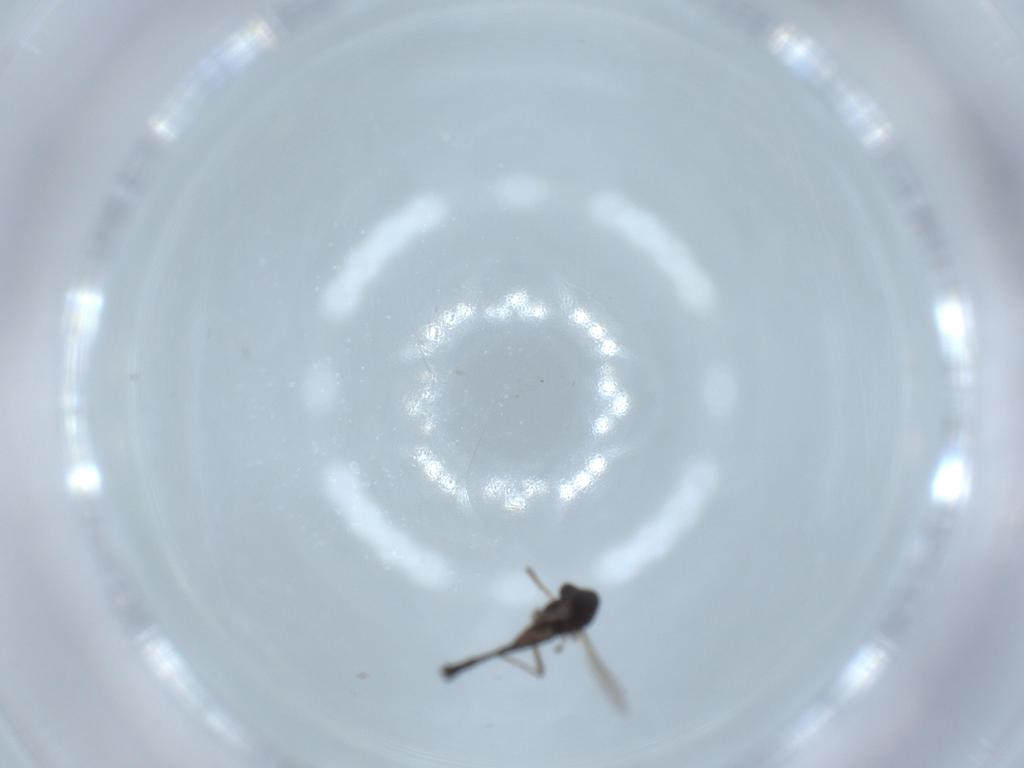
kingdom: Animalia
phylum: Arthropoda
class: Insecta
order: Diptera
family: Chironomidae
